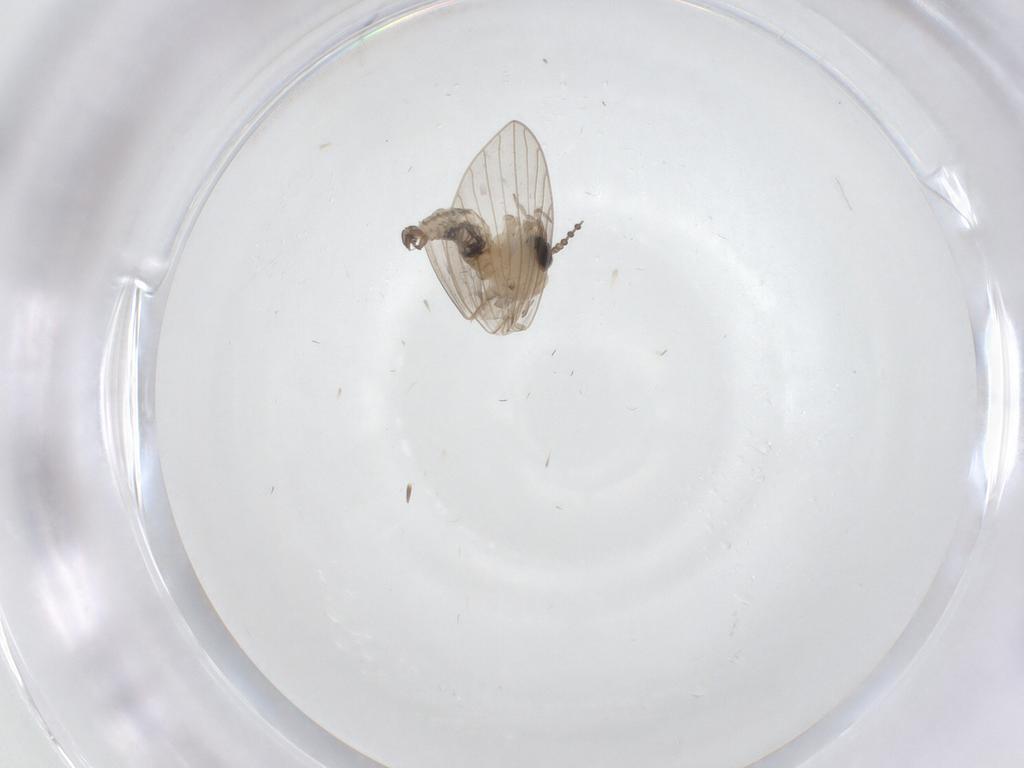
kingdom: Animalia
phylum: Arthropoda
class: Insecta
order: Diptera
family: Psychodidae
